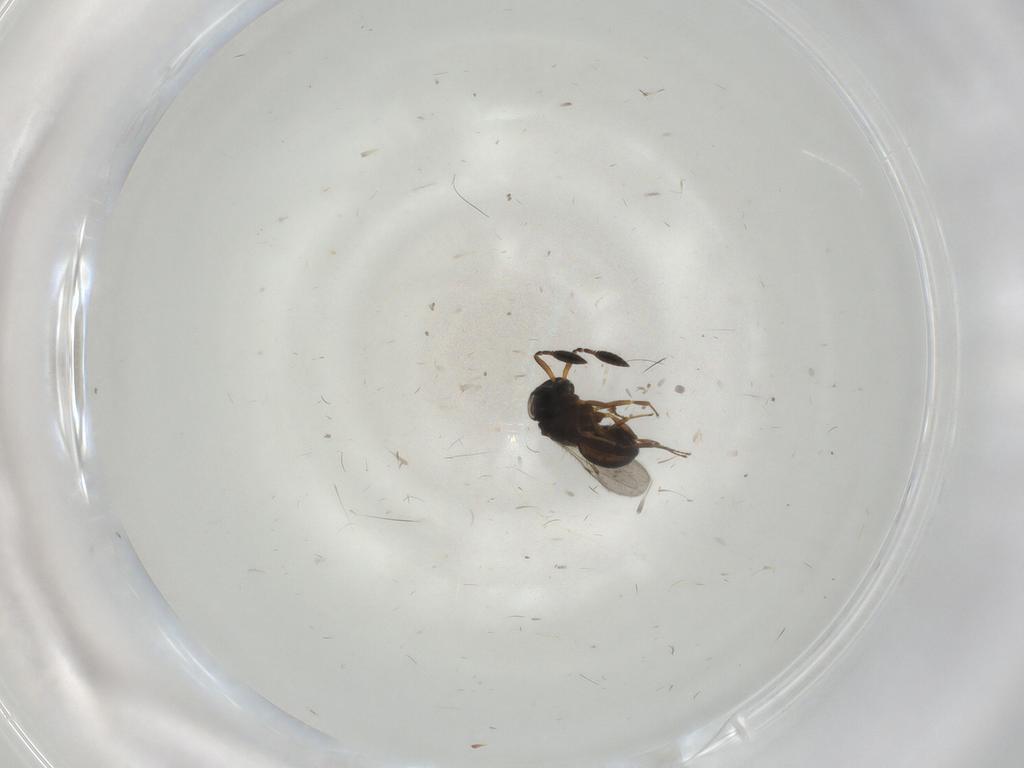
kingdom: Animalia
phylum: Arthropoda
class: Insecta
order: Hymenoptera
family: Scelionidae
